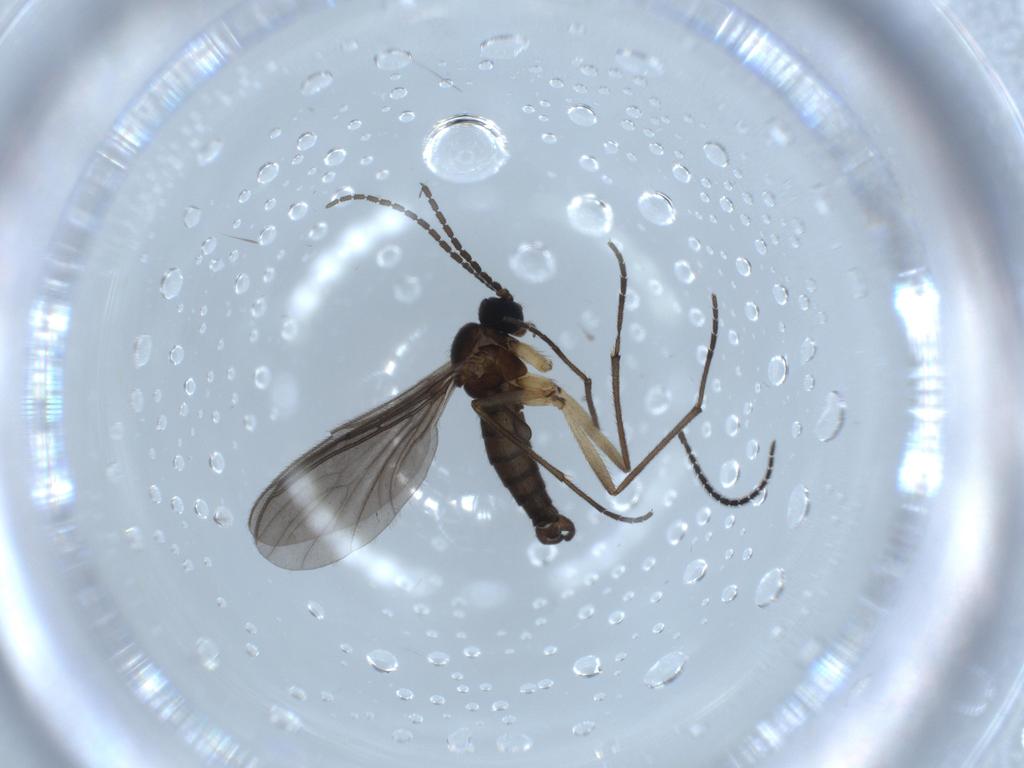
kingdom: Animalia
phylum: Arthropoda
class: Insecta
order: Diptera
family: Sciaridae
